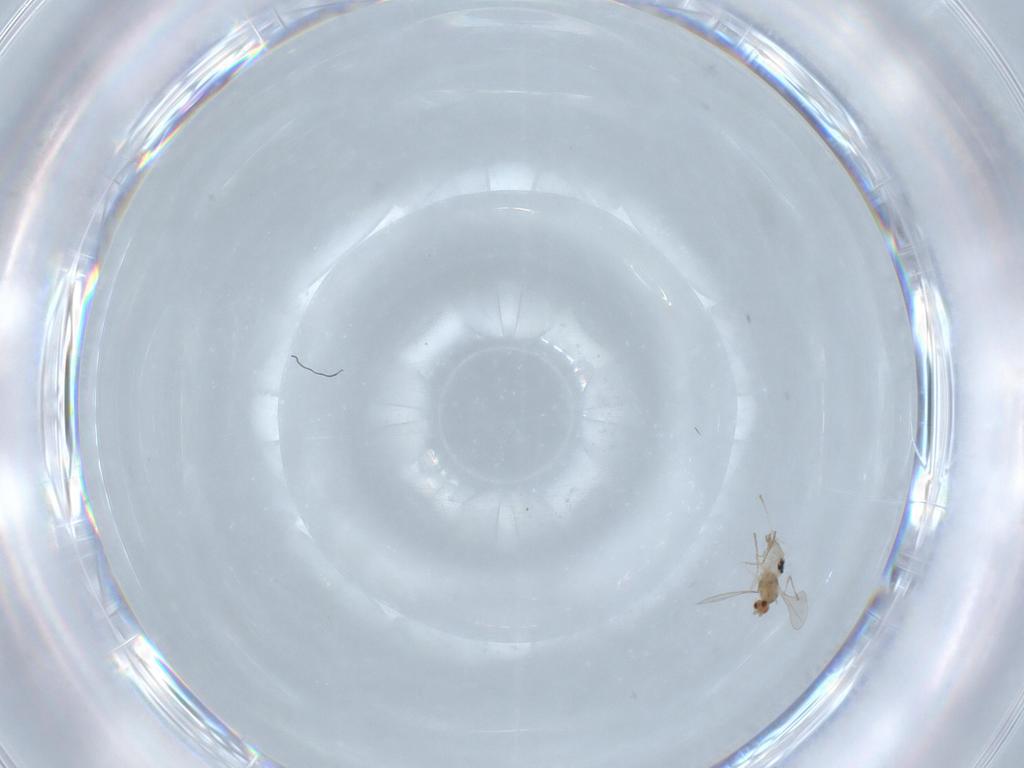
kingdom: Animalia
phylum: Arthropoda
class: Insecta
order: Diptera
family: Cecidomyiidae
